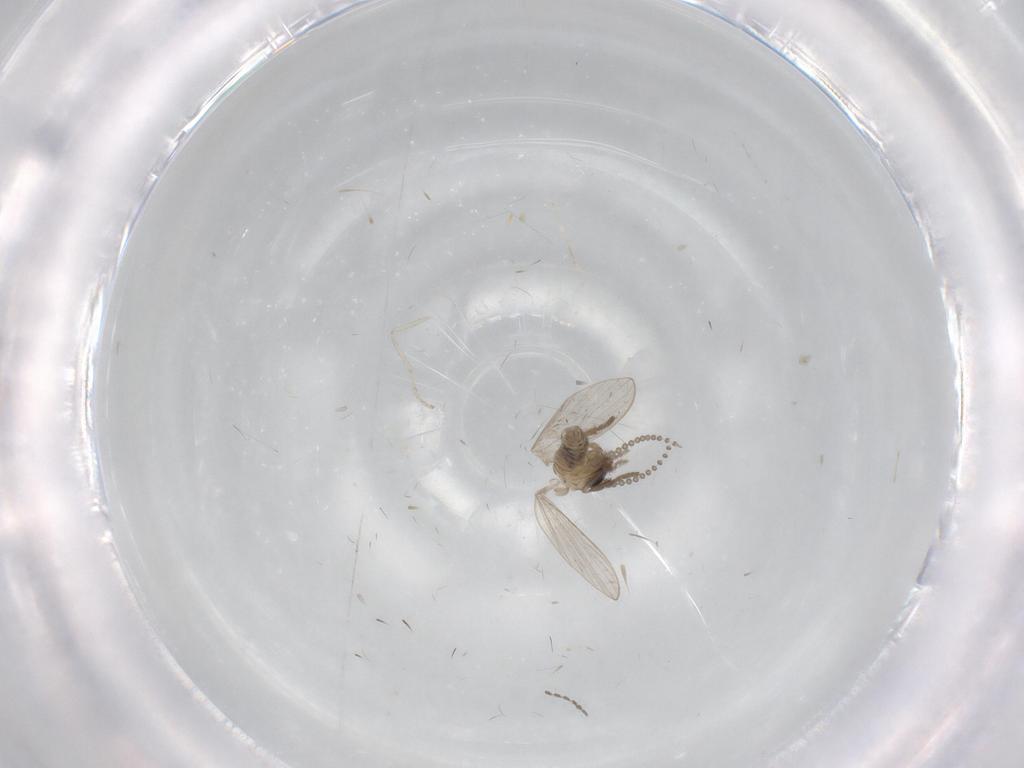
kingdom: Animalia
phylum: Arthropoda
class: Insecta
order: Diptera
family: Psychodidae
